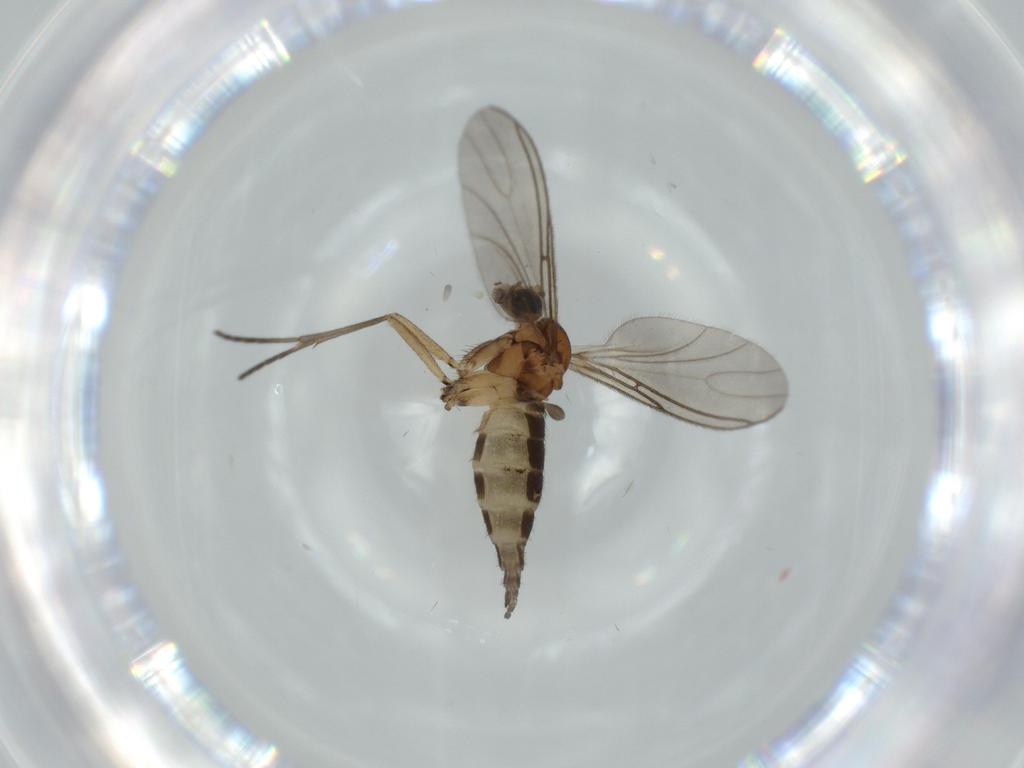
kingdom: Animalia
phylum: Arthropoda
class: Insecta
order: Diptera
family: Sciaridae
